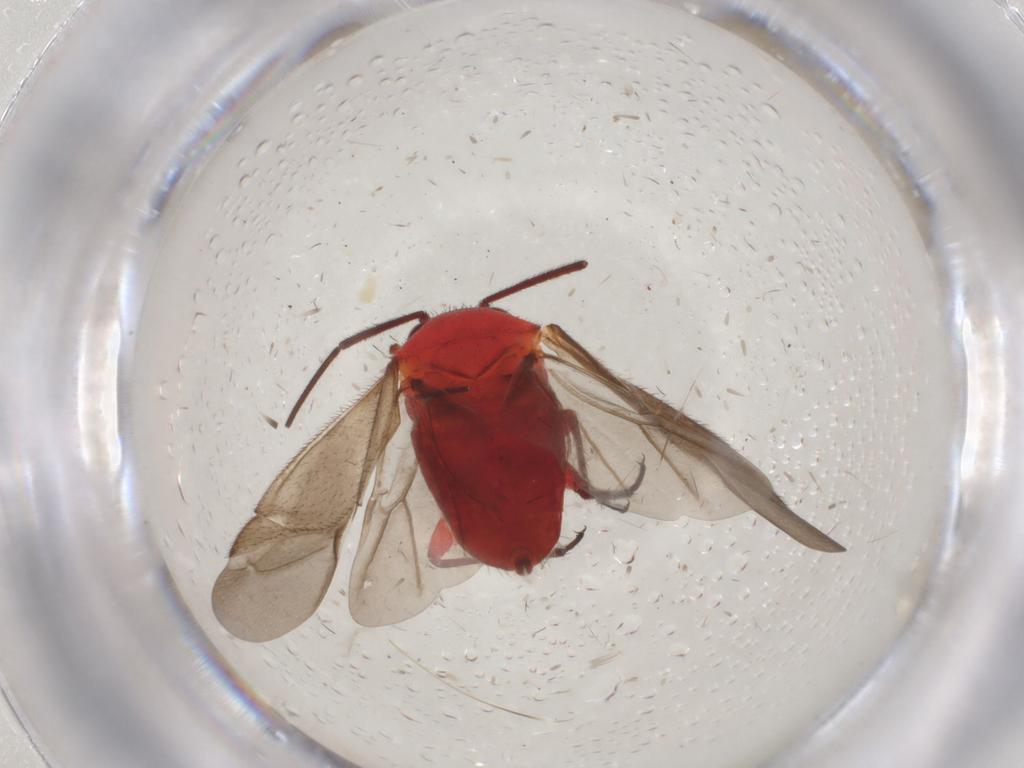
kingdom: Animalia
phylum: Arthropoda
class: Insecta
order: Hemiptera
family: Miridae
